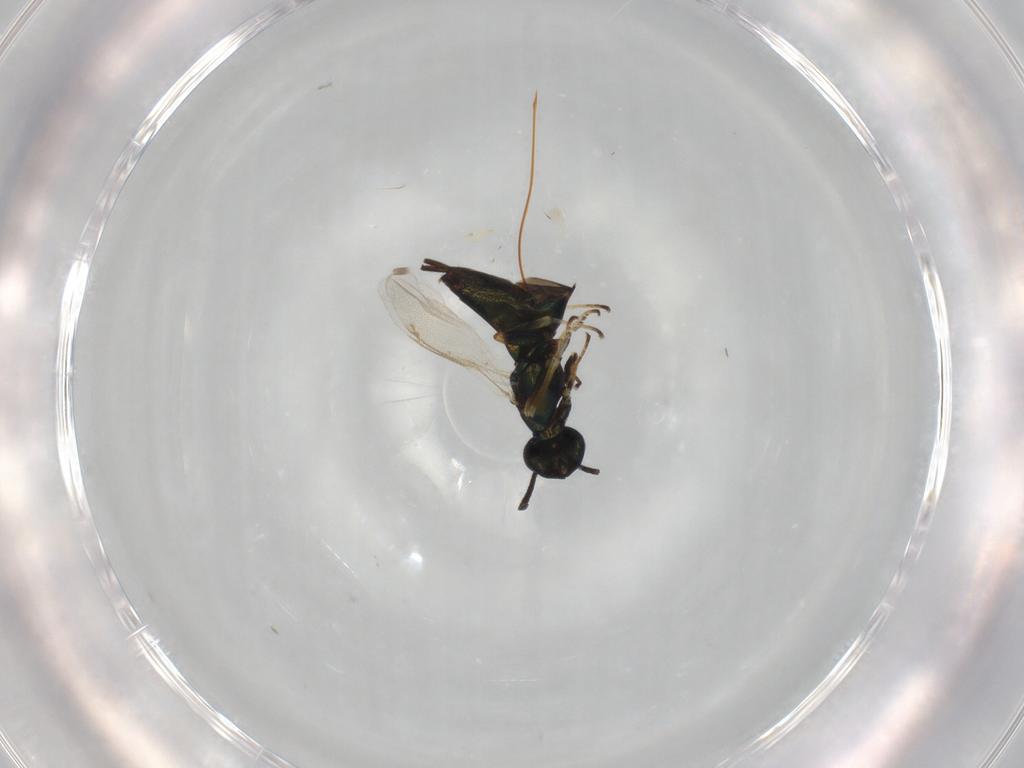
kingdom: Animalia
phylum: Arthropoda
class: Insecta
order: Hymenoptera
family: Eupelmidae
